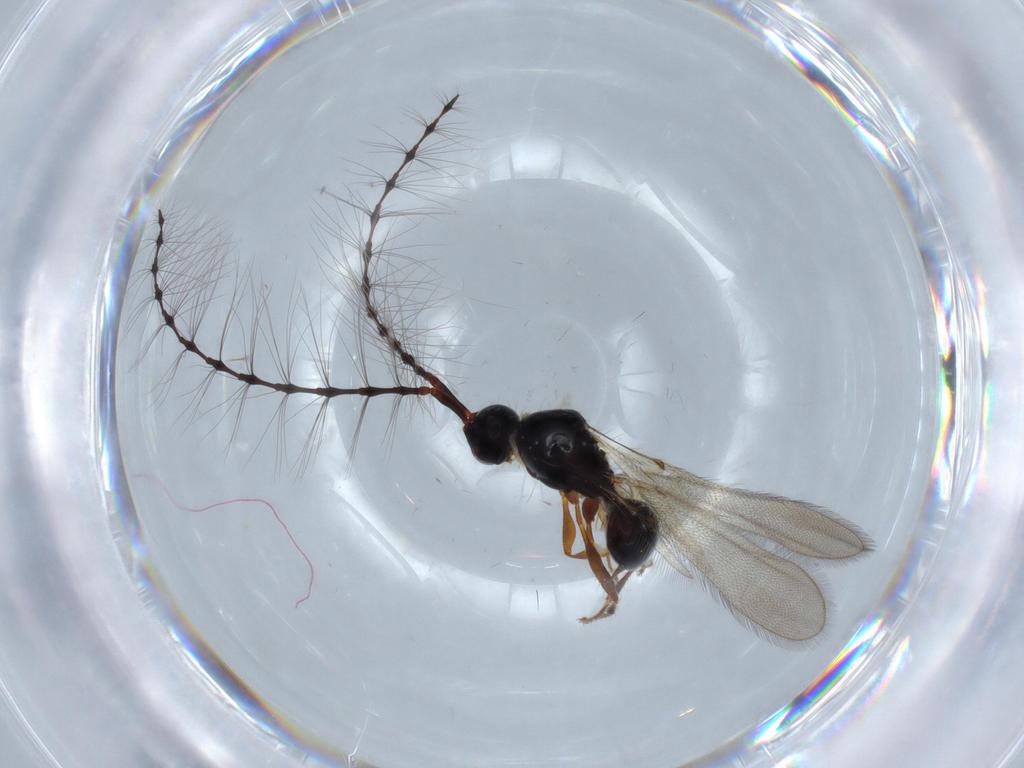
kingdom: Animalia
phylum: Arthropoda
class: Insecta
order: Hymenoptera
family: Diapriidae
